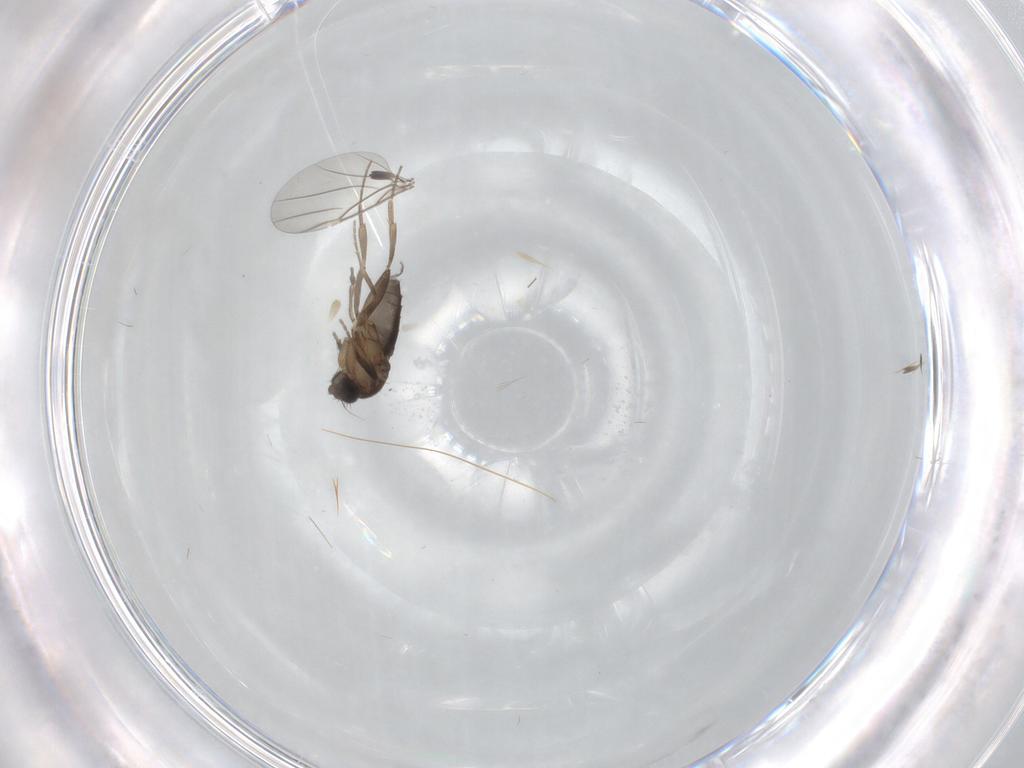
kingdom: Animalia
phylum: Arthropoda
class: Insecta
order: Diptera
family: Phoridae
